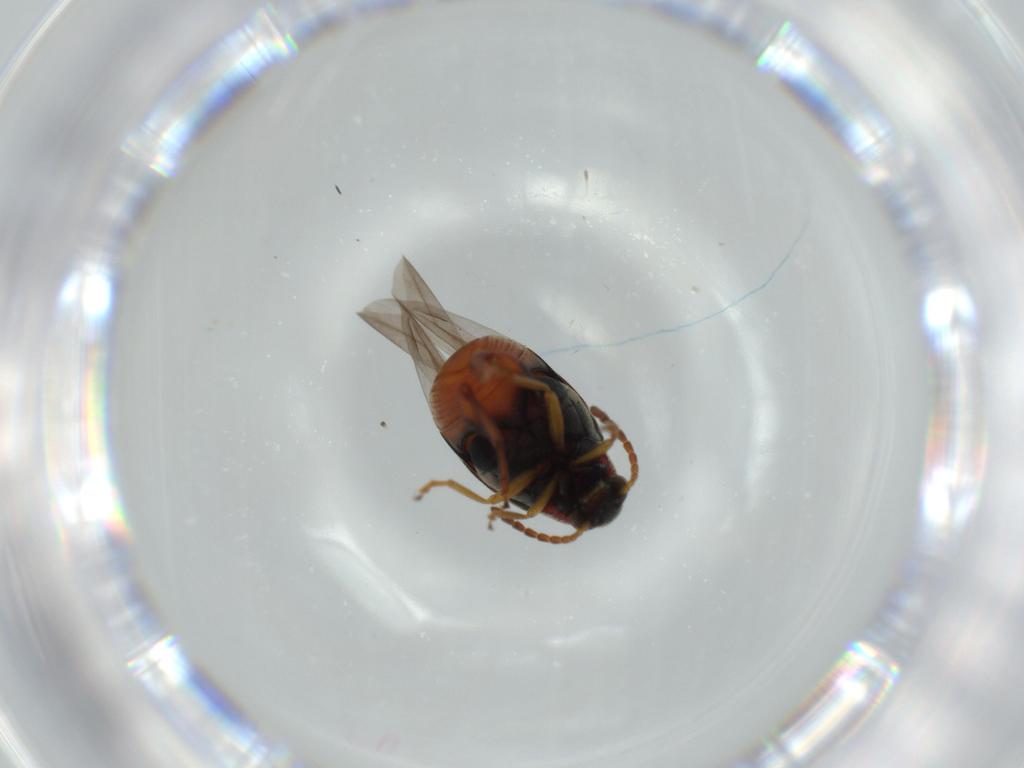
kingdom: Animalia
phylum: Arthropoda
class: Insecta
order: Coleoptera
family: Chrysomelidae
